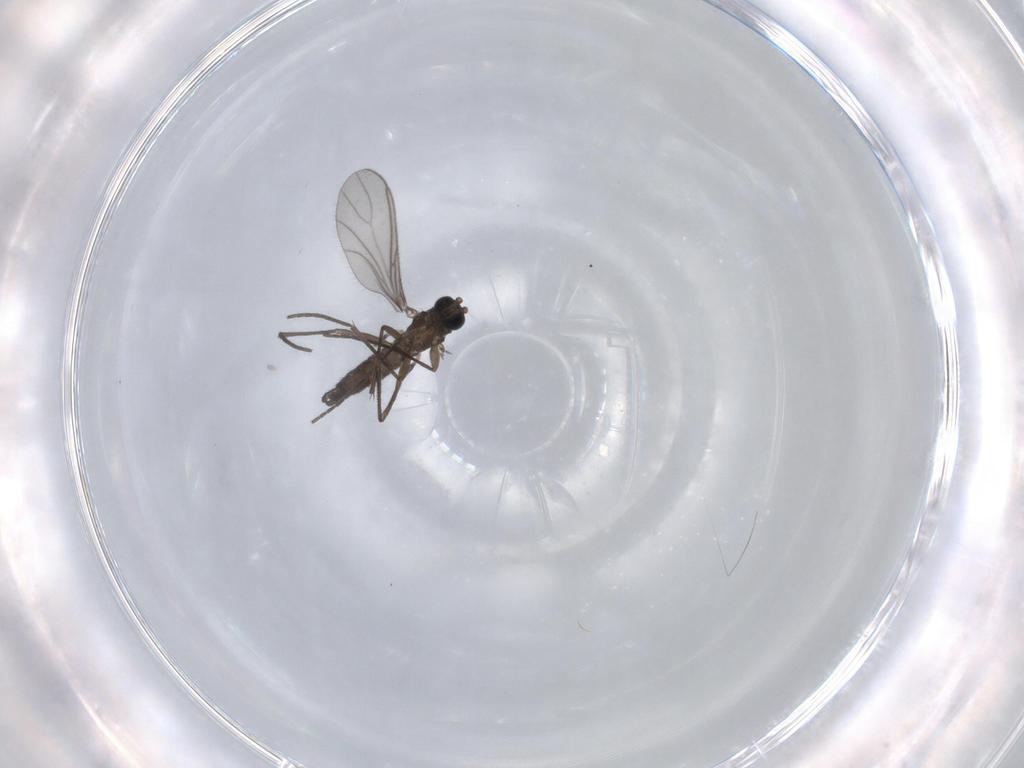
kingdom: Animalia
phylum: Arthropoda
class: Insecta
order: Diptera
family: Sciaridae
